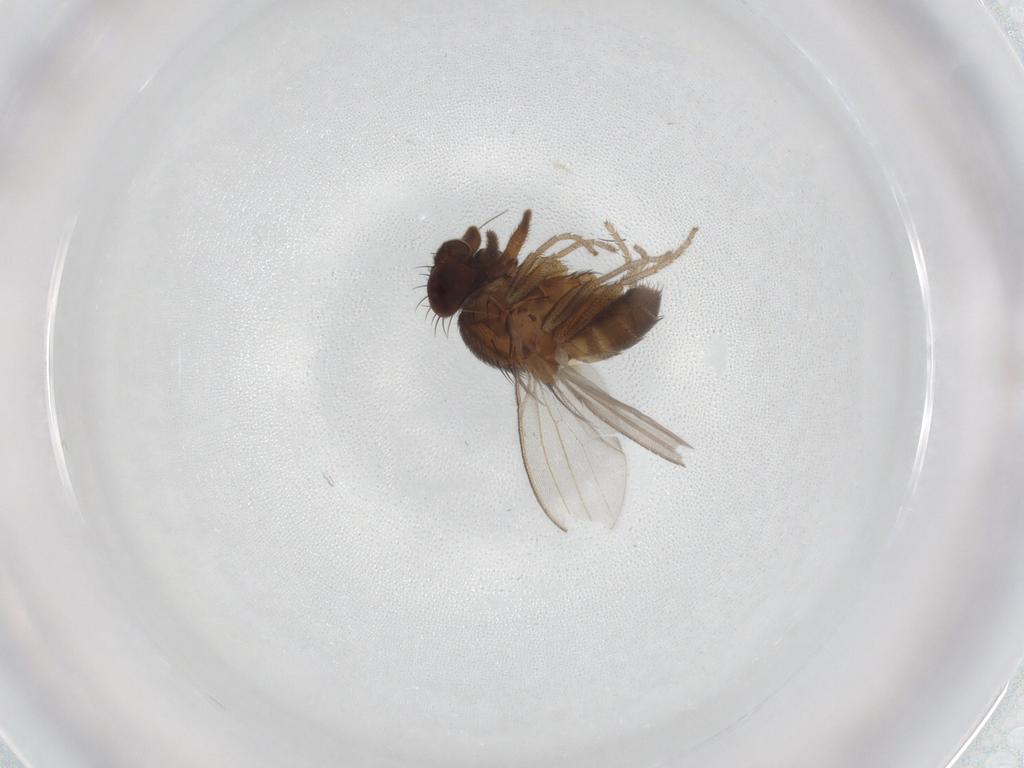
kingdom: Animalia
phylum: Arthropoda
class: Insecta
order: Diptera
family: Milichiidae
